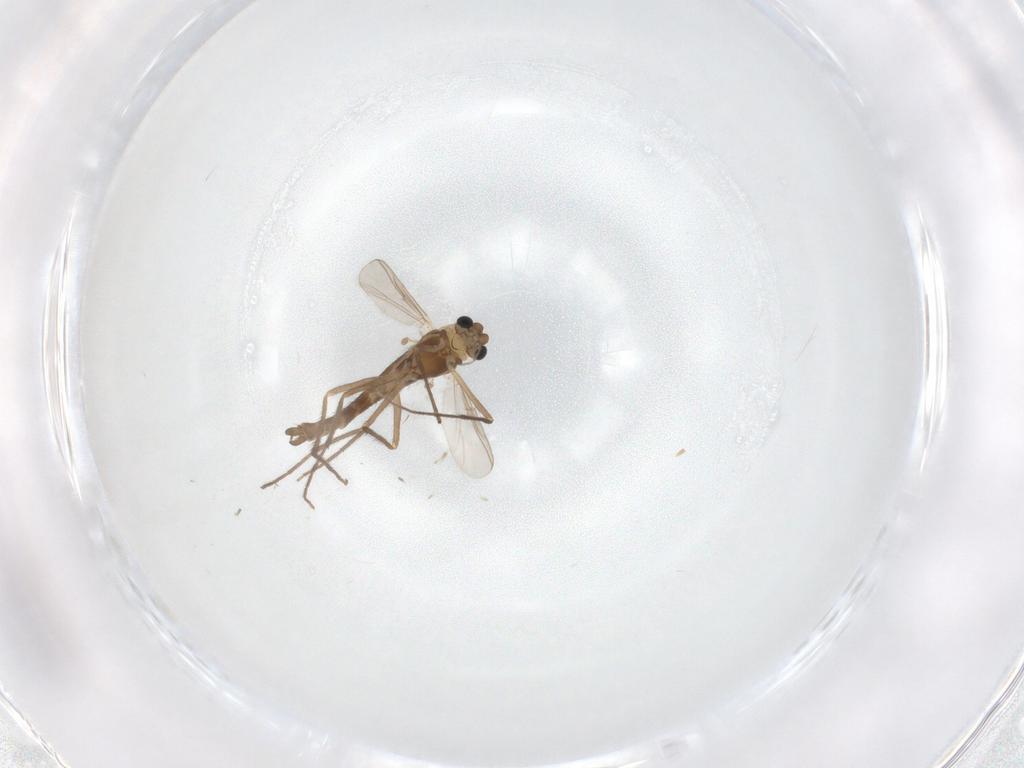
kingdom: Animalia
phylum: Arthropoda
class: Insecta
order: Diptera
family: Chironomidae
